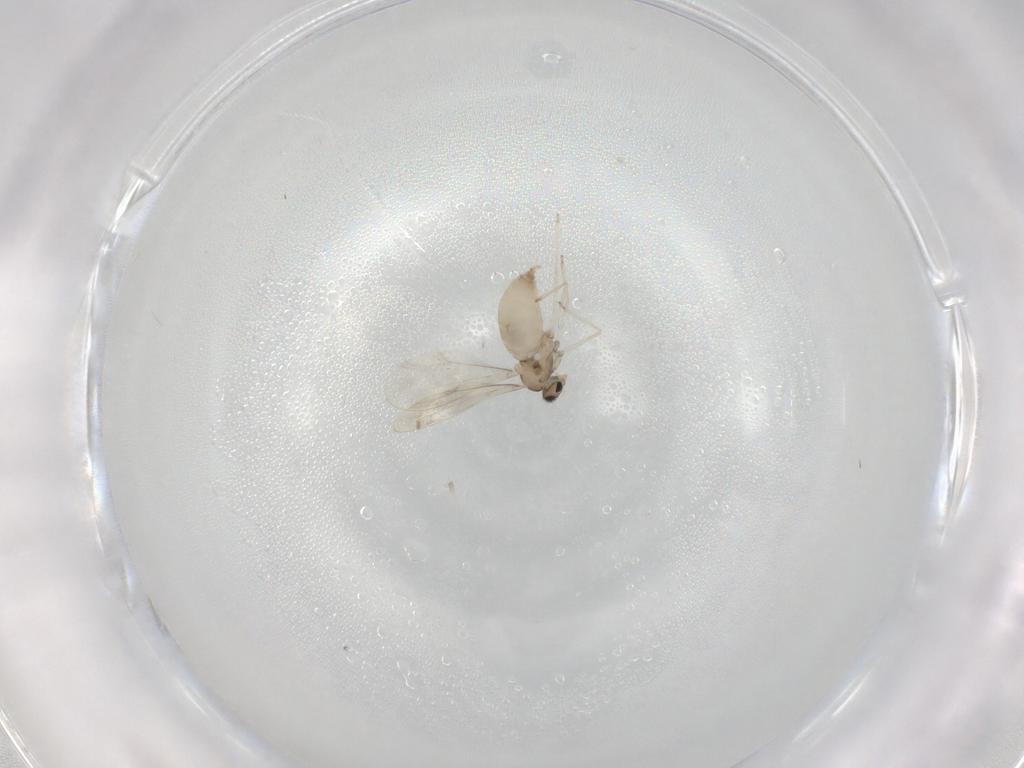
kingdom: Animalia
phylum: Arthropoda
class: Insecta
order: Diptera
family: Cecidomyiidae
